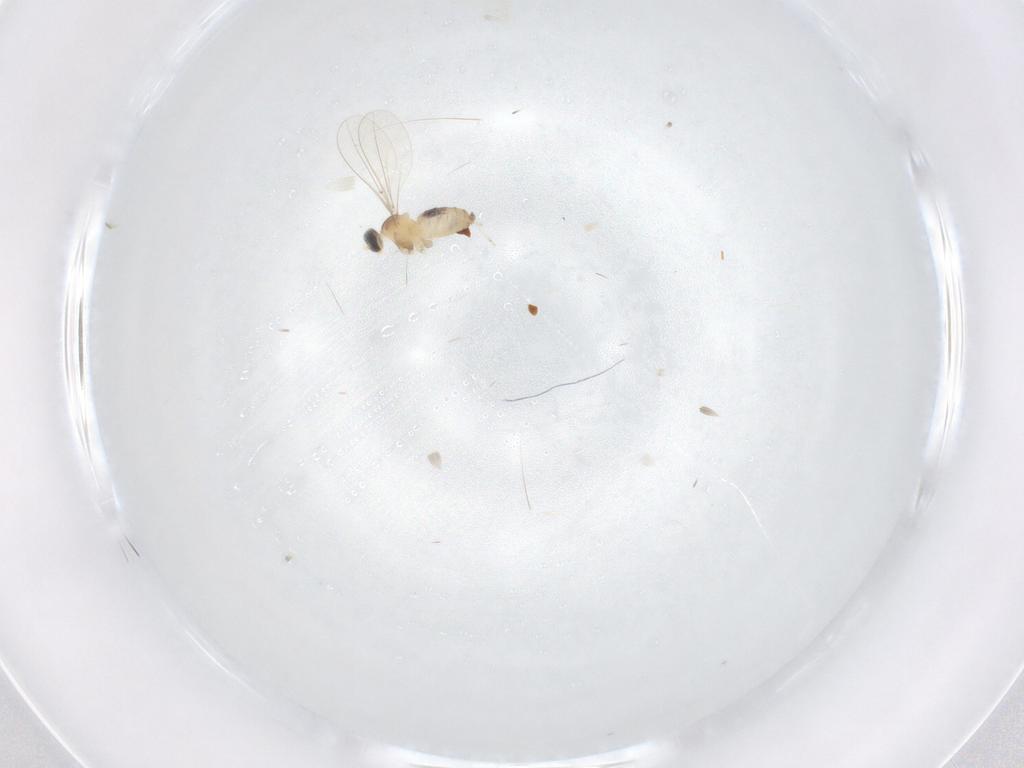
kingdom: Animalia
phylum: Arthropoda
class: Insecta
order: Diptera
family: Cecidomyiidae
